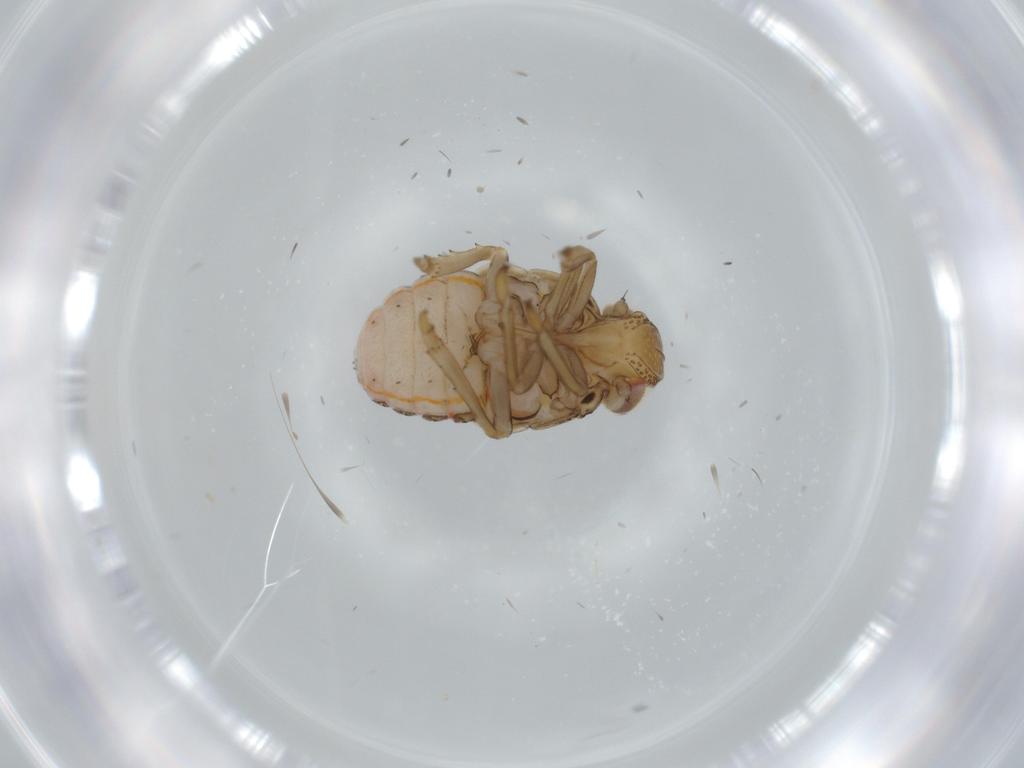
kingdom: Animalia
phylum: Arthropoda
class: Insecta
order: Hemiptera
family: Issidae
